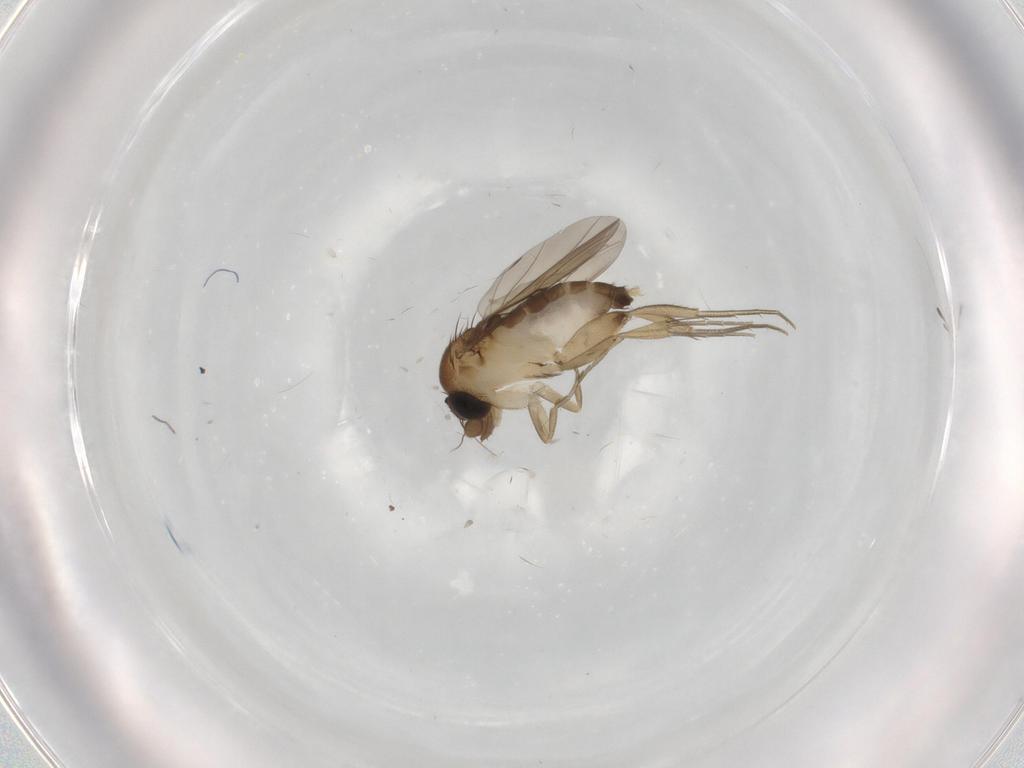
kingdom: Animalia
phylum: Arthropoda
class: Insecta
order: Diptera
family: Phoridae
